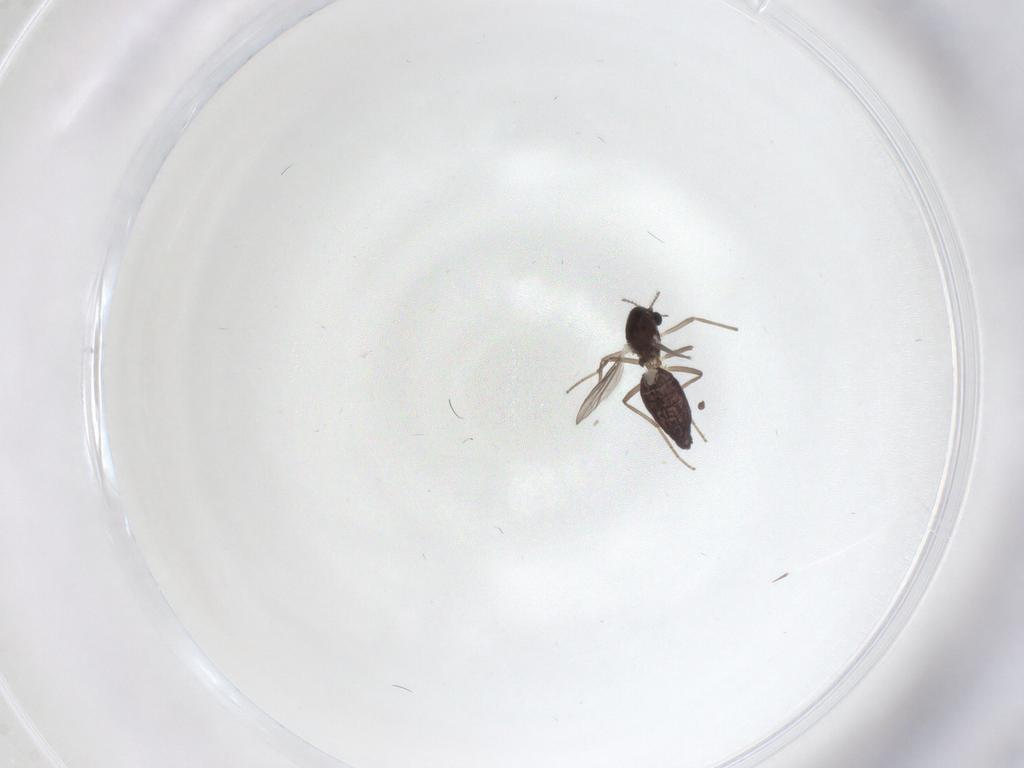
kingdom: Animalia
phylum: Arthropoda
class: Insecta
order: Diptera
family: Chironomidae
